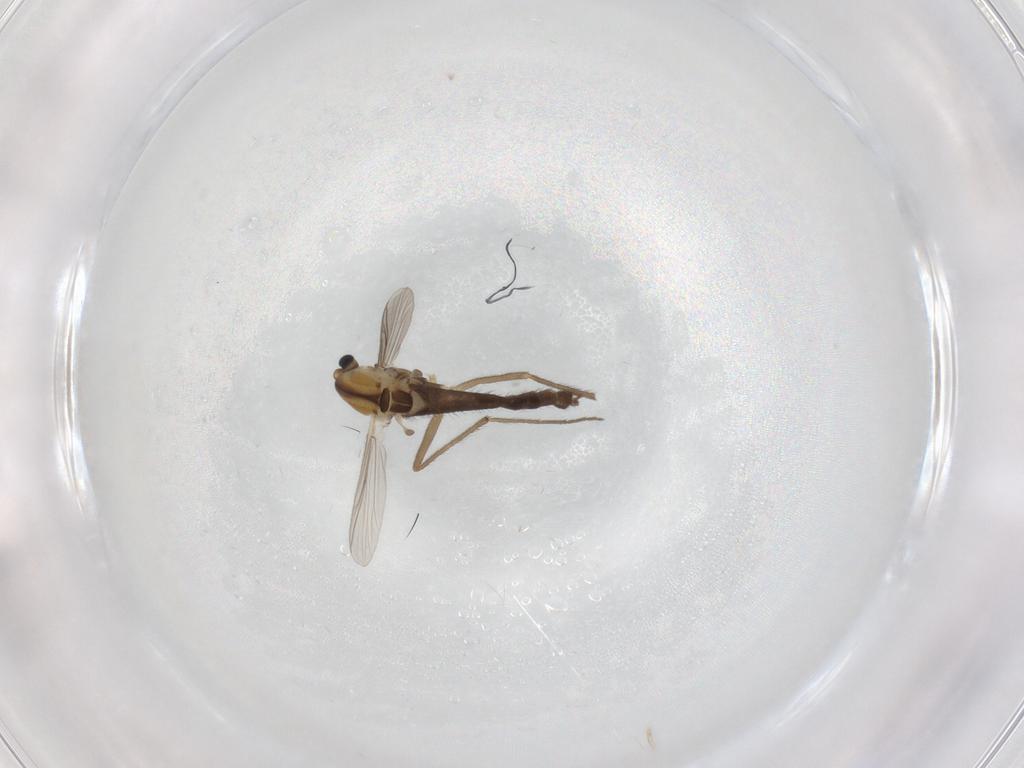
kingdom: Animalia
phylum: Arthropoda
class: Insecta
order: Diptera
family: Chironomidae
